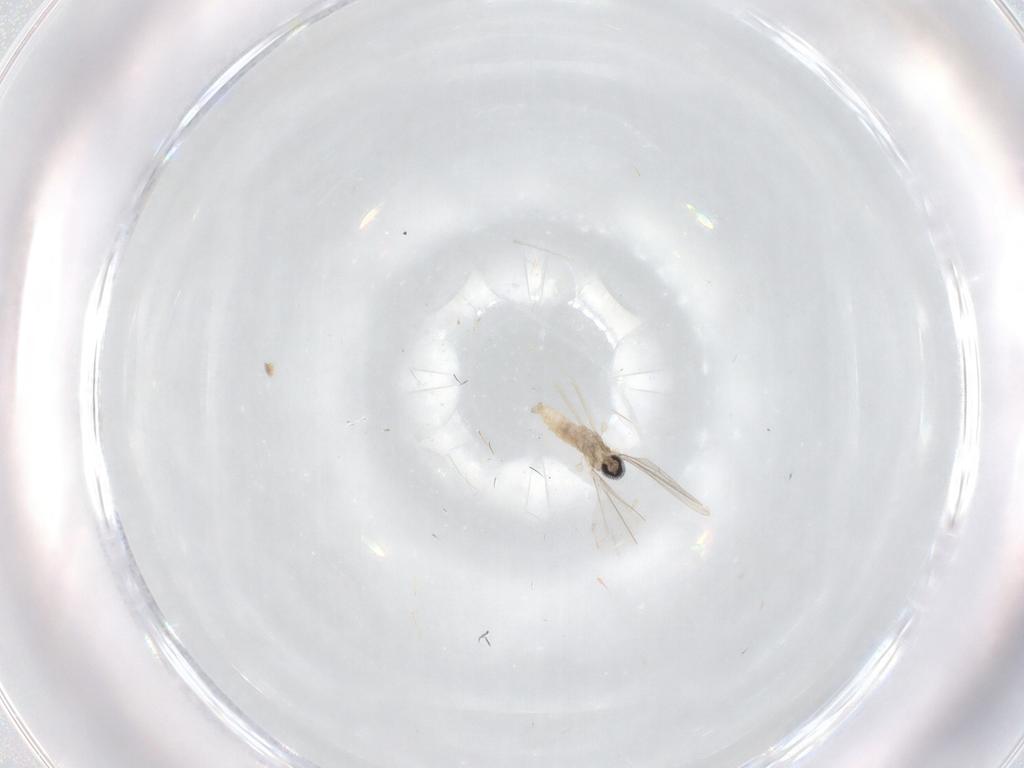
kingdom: Animalia
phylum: Arthropoda
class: Insecta
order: Diptera
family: Cecidomyiidae
